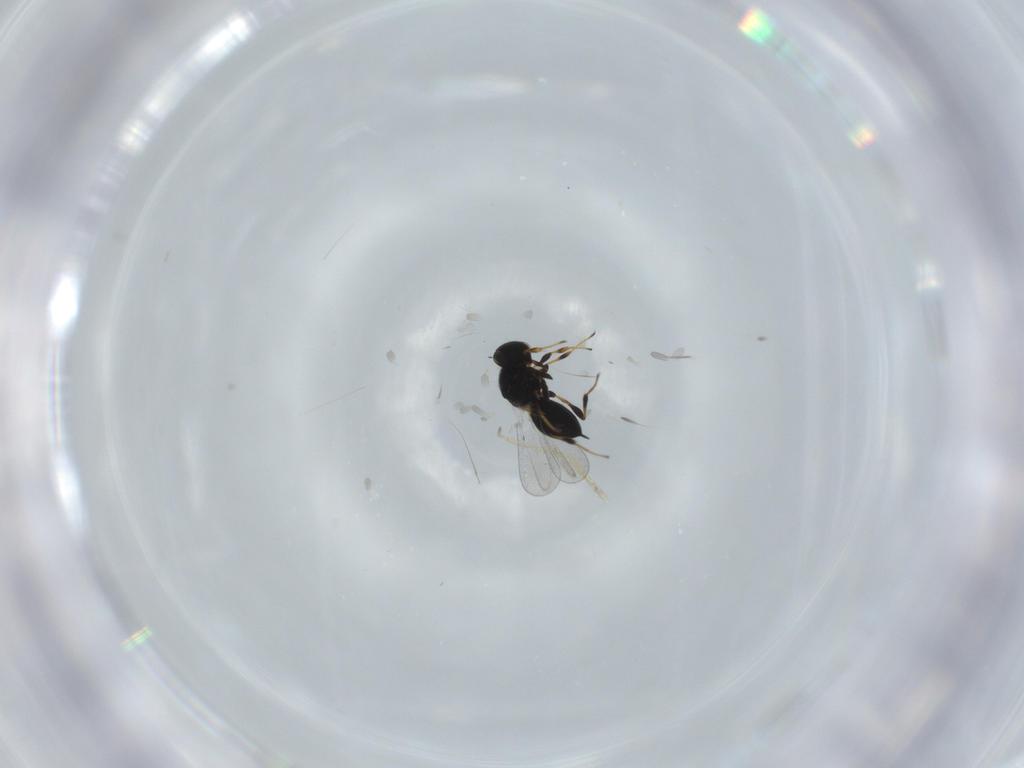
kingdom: Animalia
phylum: Arthropoda
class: Insecta
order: Hymenoptera
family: Platygastridae
